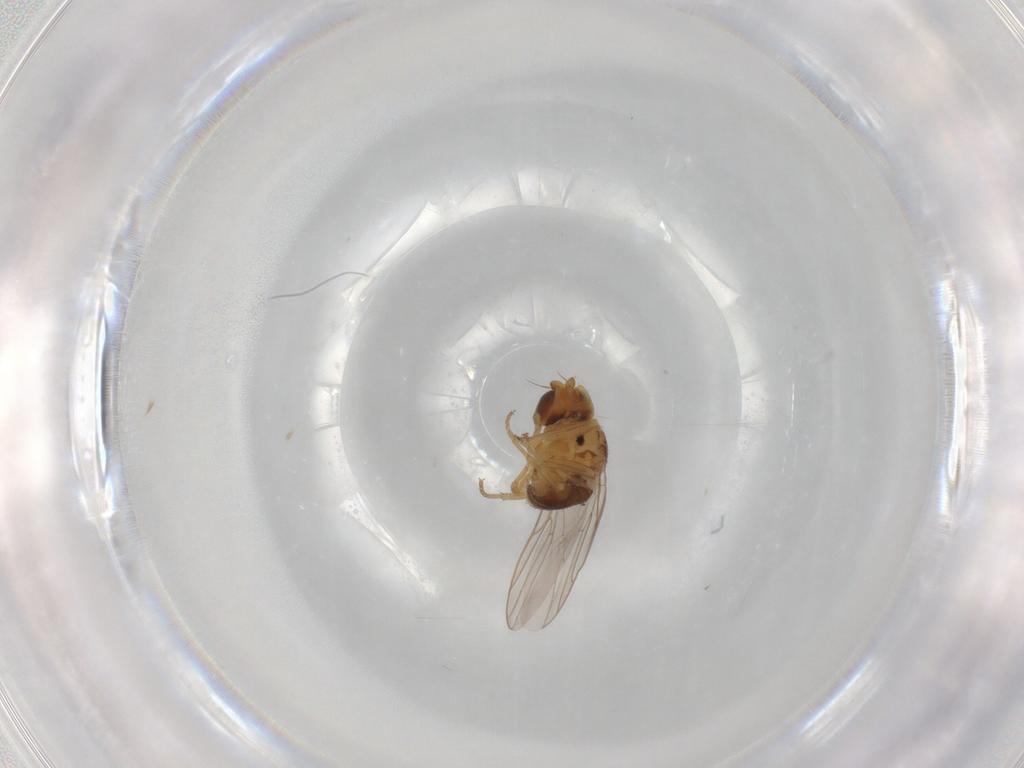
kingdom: Animalia
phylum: Arthropoda
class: Insecta
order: Diptera
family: Chloropidae
